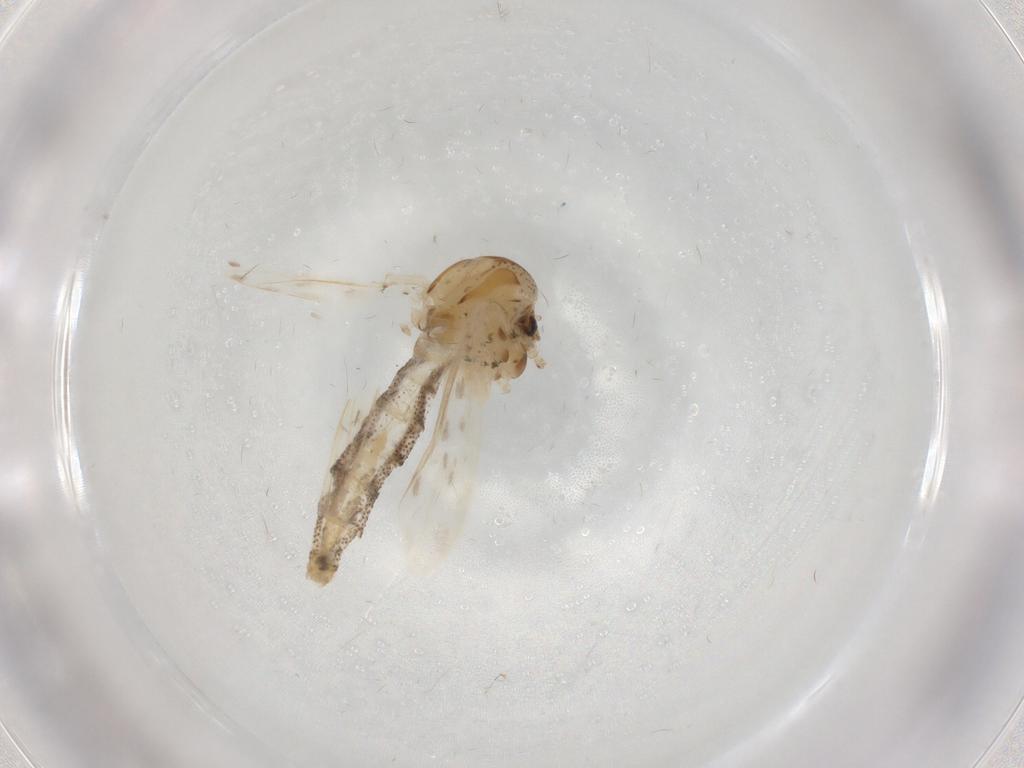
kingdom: Animalia
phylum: Arthropoda
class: Insecta
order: Diptera
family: Chaoboridae
